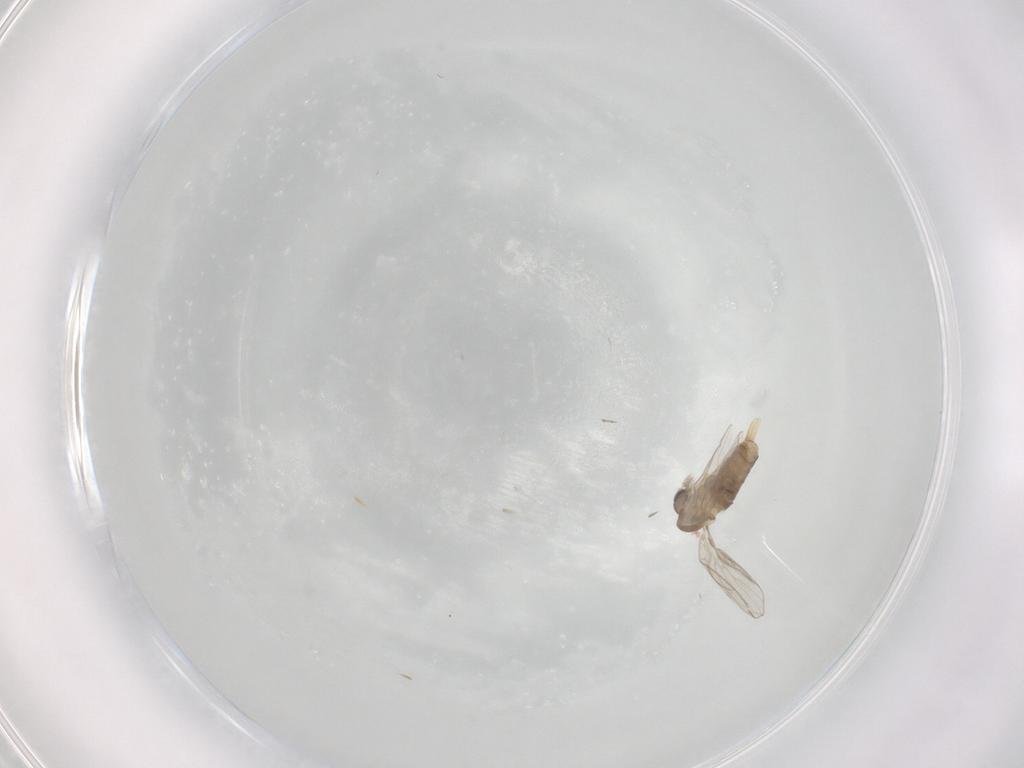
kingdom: Animalia
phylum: Arthropoda
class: Insecta
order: Diptera
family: Psychodidae
